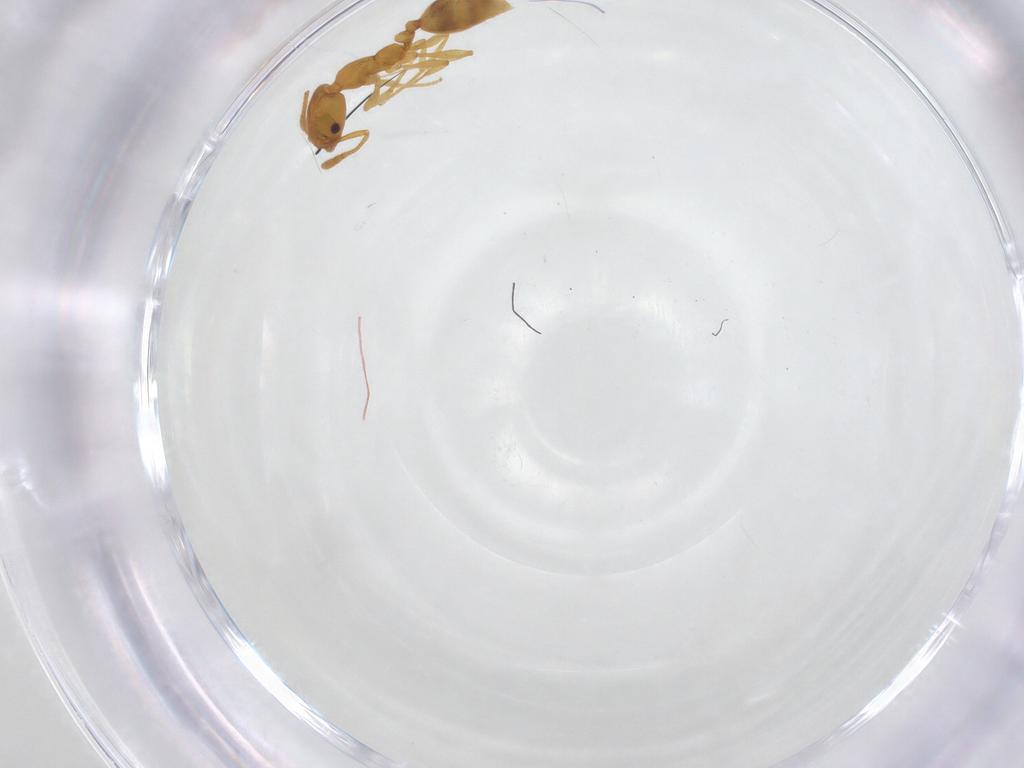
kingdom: Animalia
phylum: Arthropoda
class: Insecta
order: Hymenoptera
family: Formicidae
